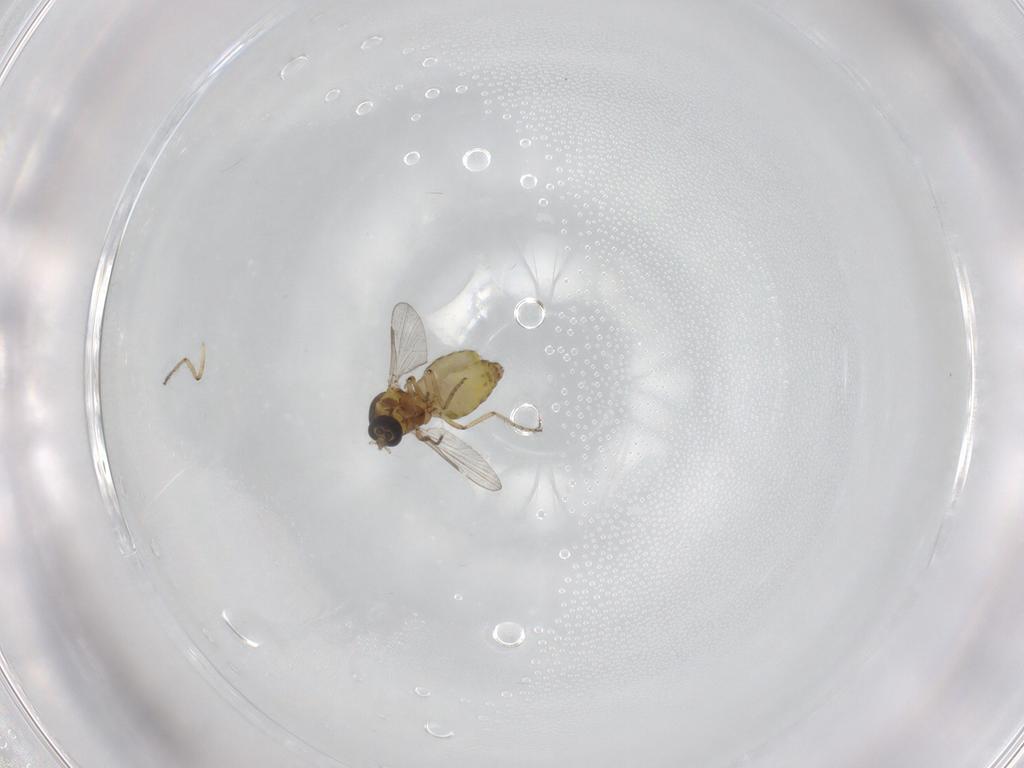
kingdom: Animalia
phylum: Arthropoda
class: Insecta
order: Diptera
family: Ceratopogonidae
